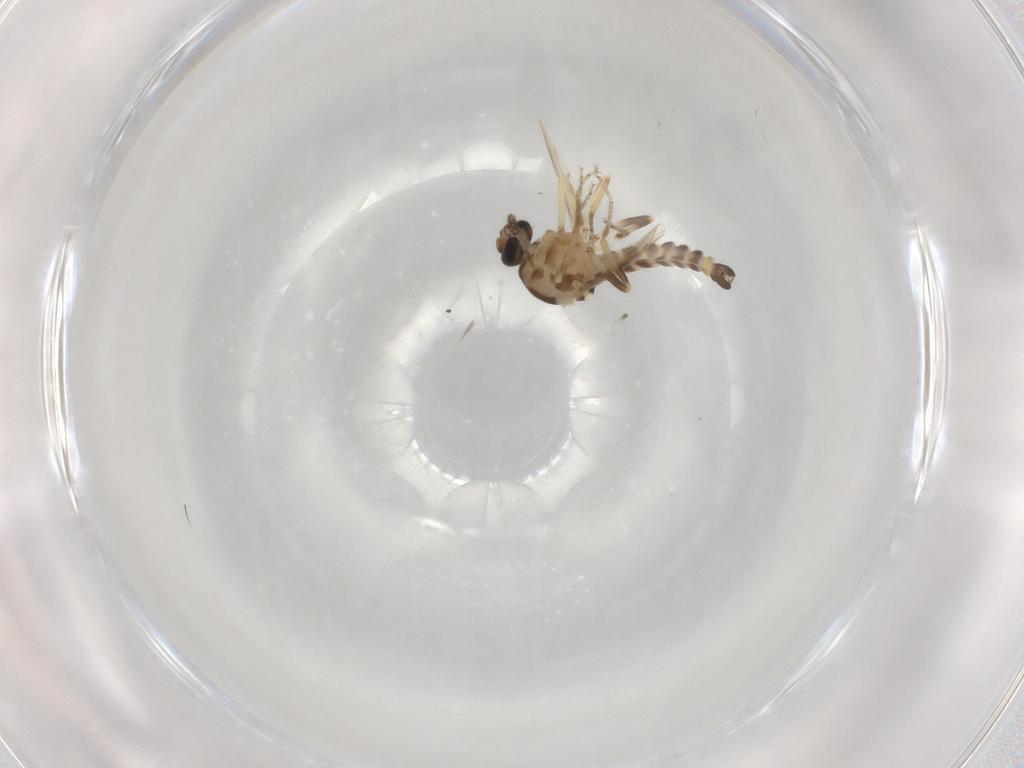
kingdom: Animalia
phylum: Arthropoda
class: Insecta
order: Diptera
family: Ceratopogonidae
